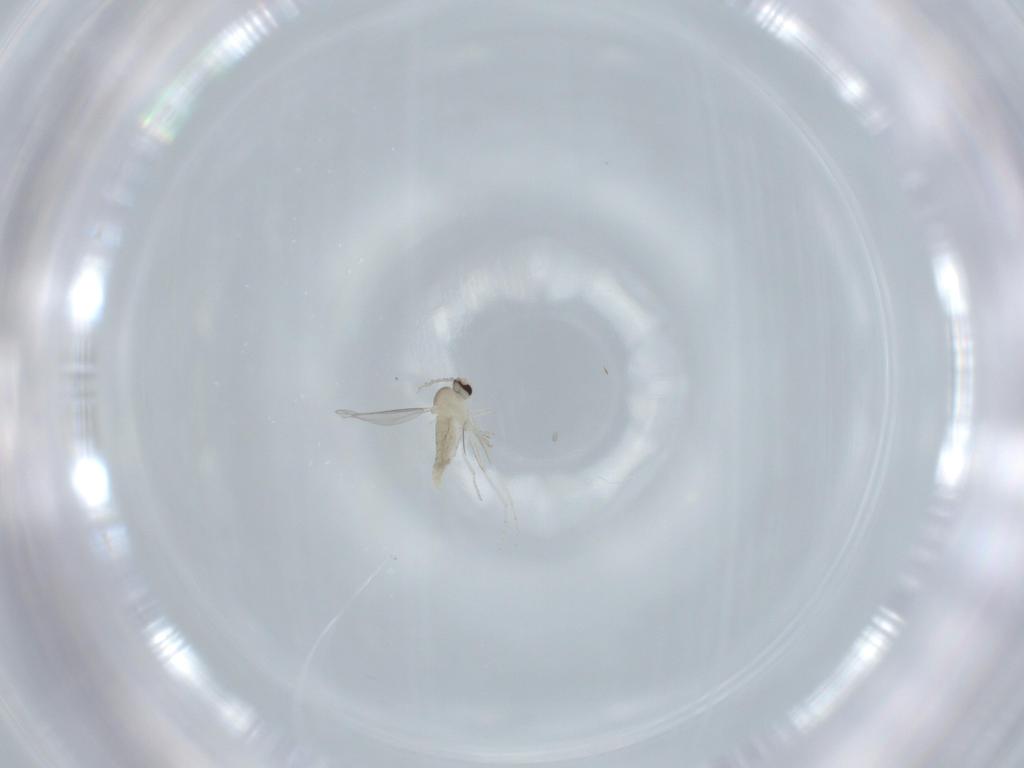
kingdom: Animalia
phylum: Arthropoda
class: Insecta
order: Diptera
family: Cecidomyiidae
